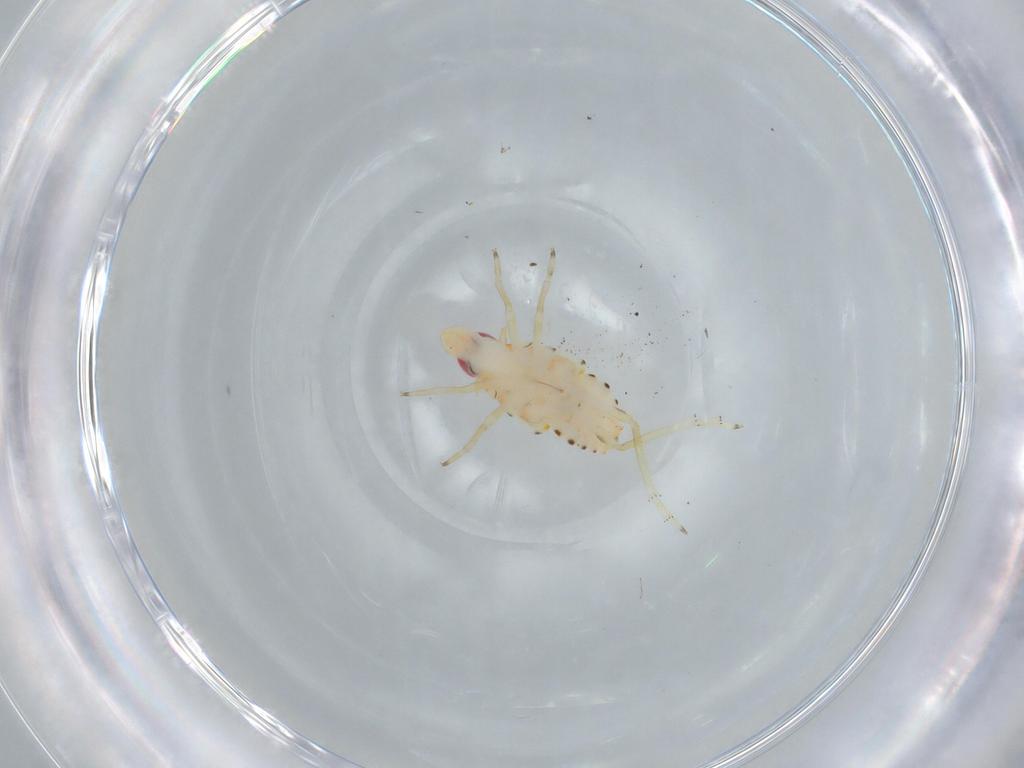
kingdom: Animalia
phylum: Arthropoda
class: Insecta
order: Hemiptera
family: Tropiduchidae
